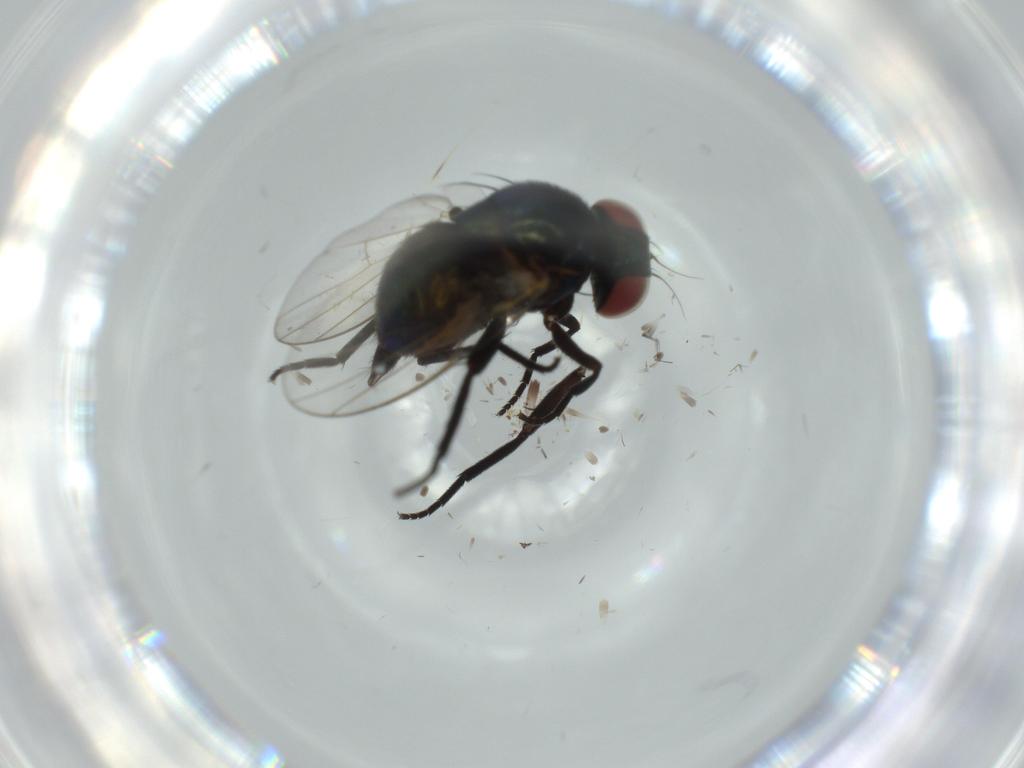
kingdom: Animalia
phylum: Arthropoda
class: Insecta
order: Diptera
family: Agromyzidae
